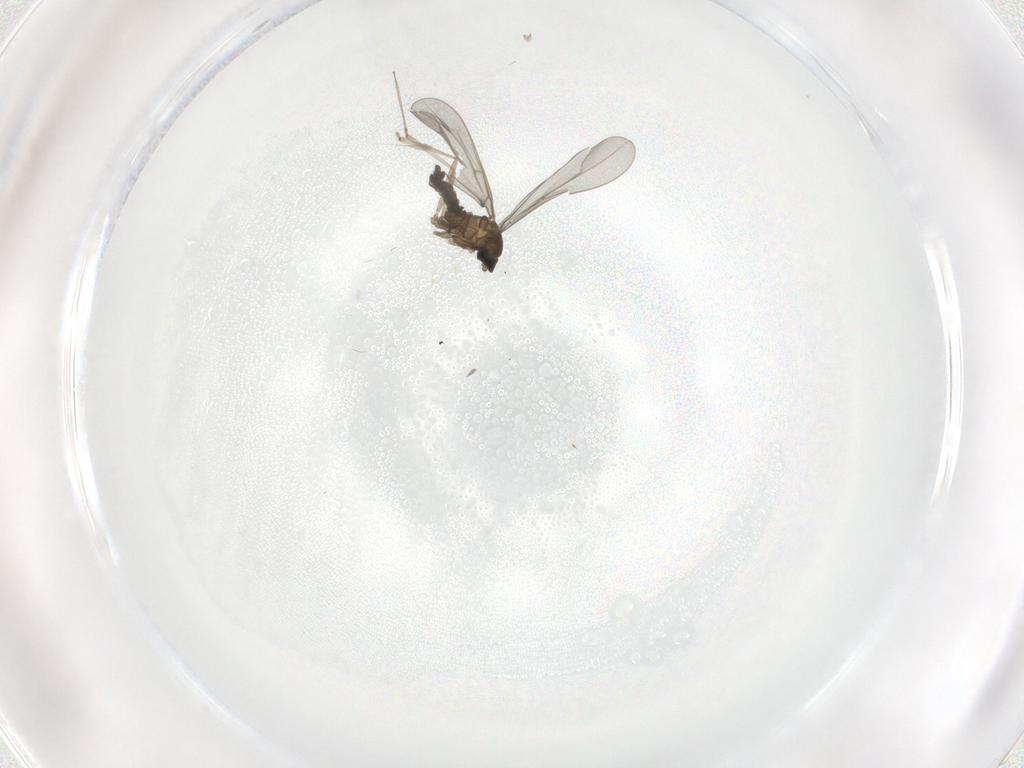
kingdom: Animalia
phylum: Arthropoda
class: Insecta
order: Diptera
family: Cecidomyiidae
